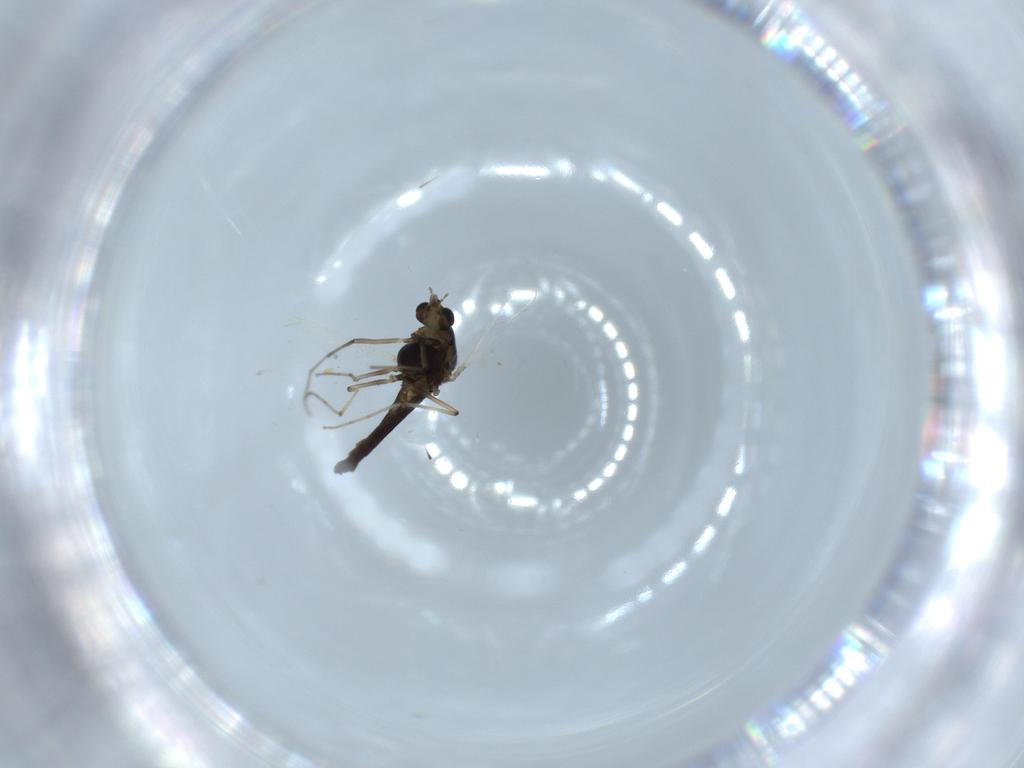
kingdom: Animalia
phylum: Arthropoda
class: Insecta
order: Diptera
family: Chironomidae
